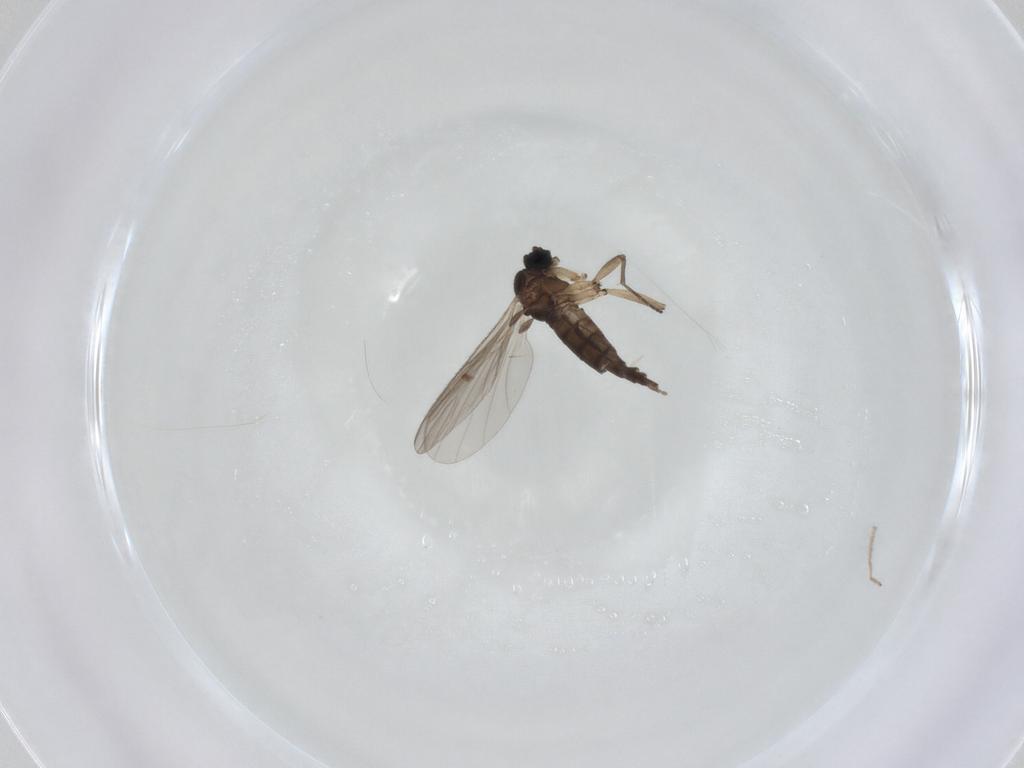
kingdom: Animalia
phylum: Arthropoda
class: Insecta
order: Diptera
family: Sciaridae
